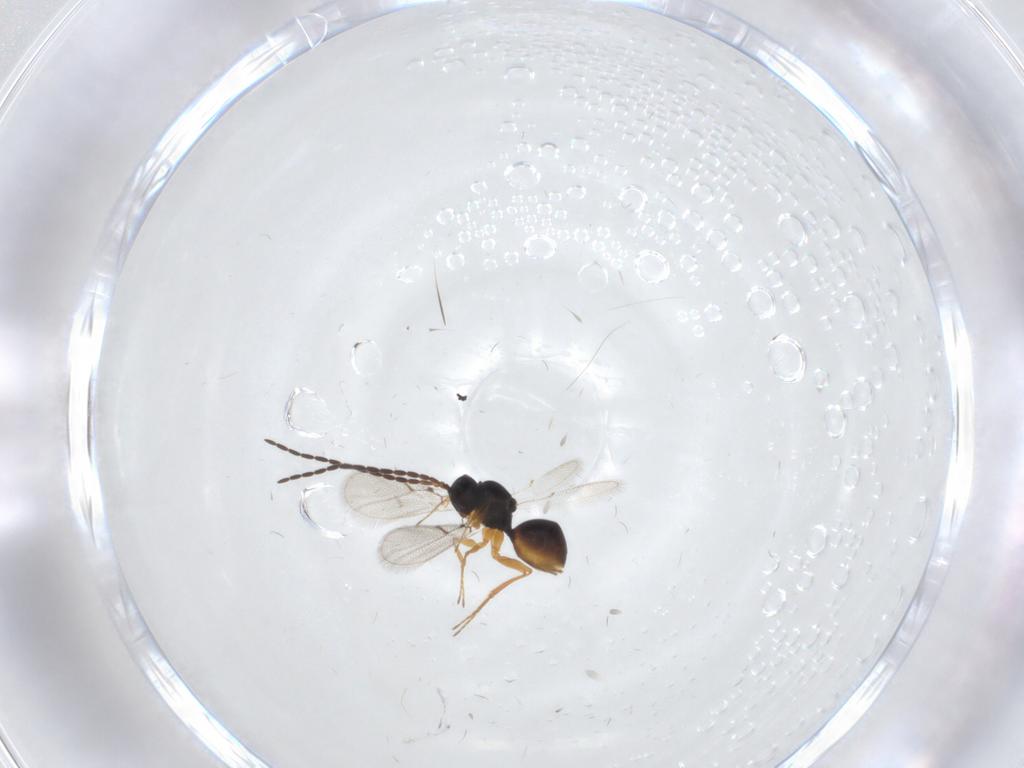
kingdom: Animalia
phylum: Arthropoda
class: Insecta
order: Hymenoptera
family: Figitidae
